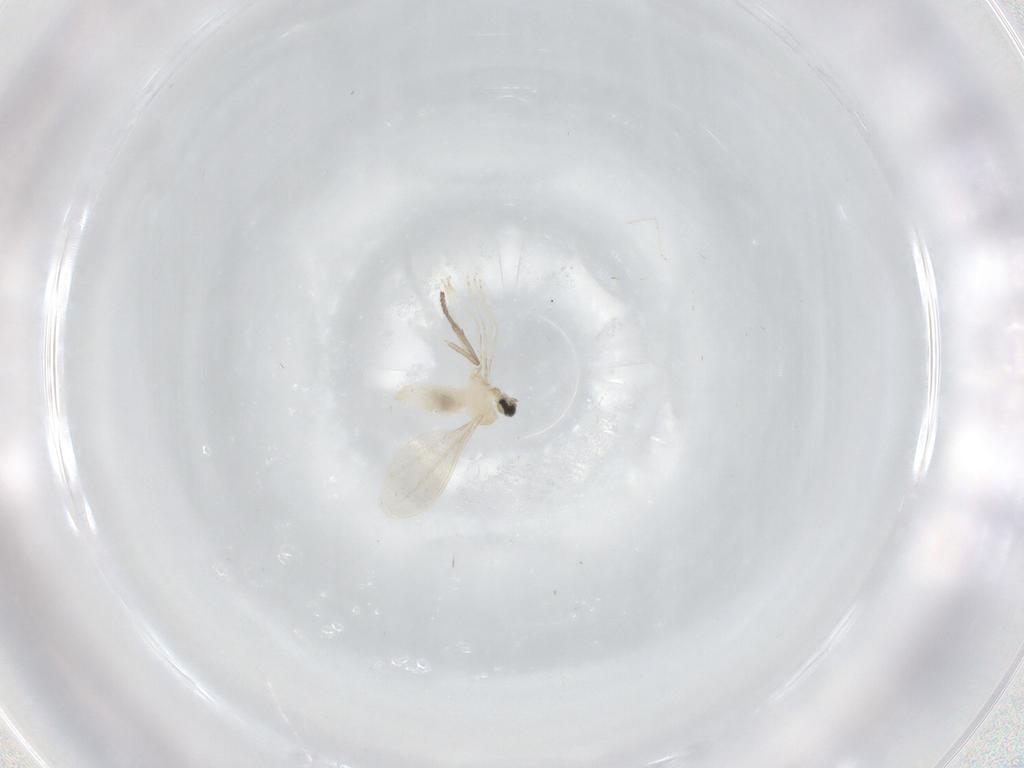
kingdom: Animalia
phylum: Arthropoda
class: Insecta
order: Diptera
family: Cecidomyiidae
